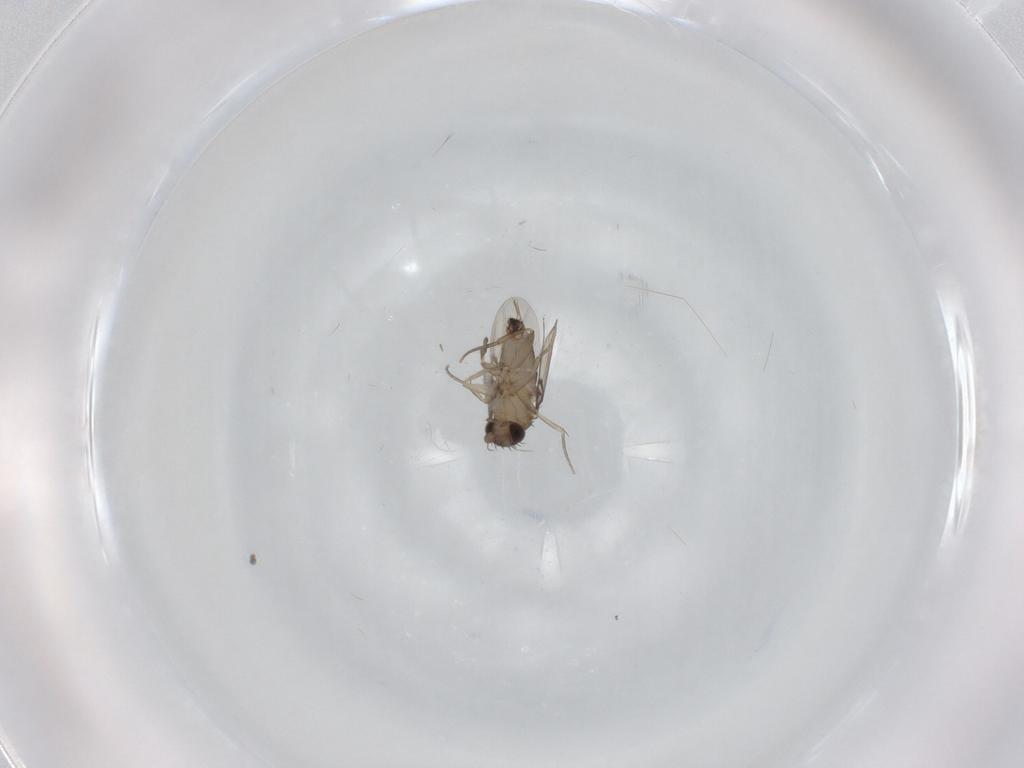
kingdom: Animalia
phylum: Arthropoda
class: Insecta
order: Diptera
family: Phoridae
